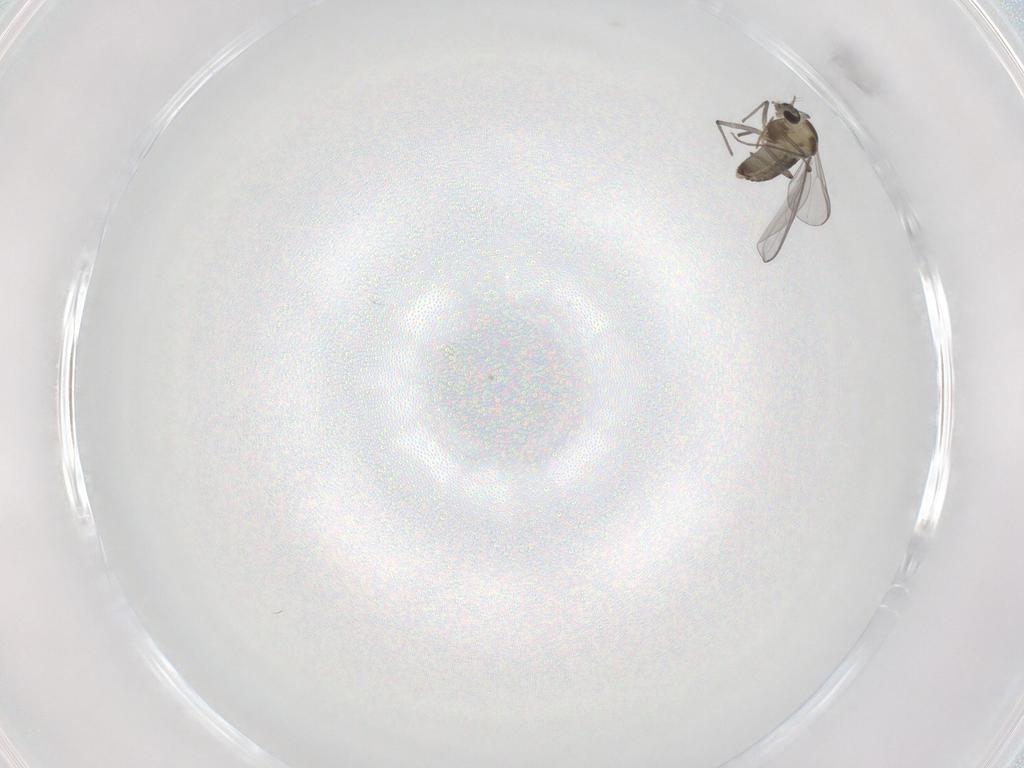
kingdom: Animalia
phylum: Arthropoda
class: Insecta
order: Diptera
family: Chironomidae
